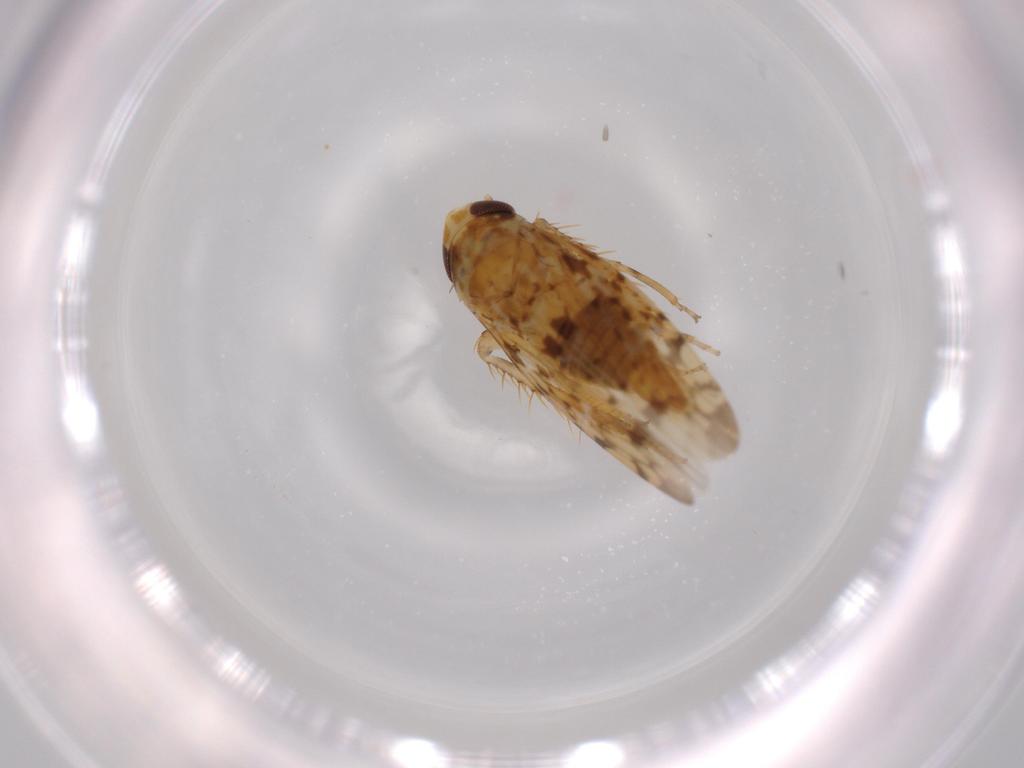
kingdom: Animalia
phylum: Arthropoda
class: Insecta
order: Hemiptera
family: Cicadellidae
